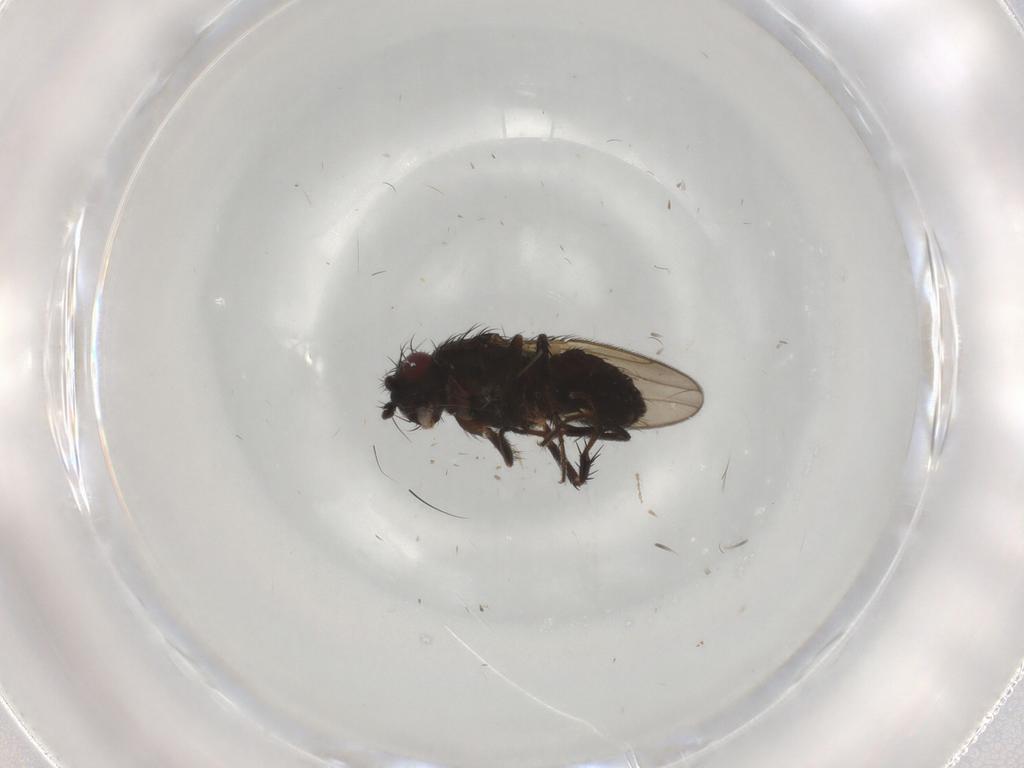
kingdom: Animalia
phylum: Arthropoda
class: Insecta
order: Diptera
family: Sphaeroceridae
